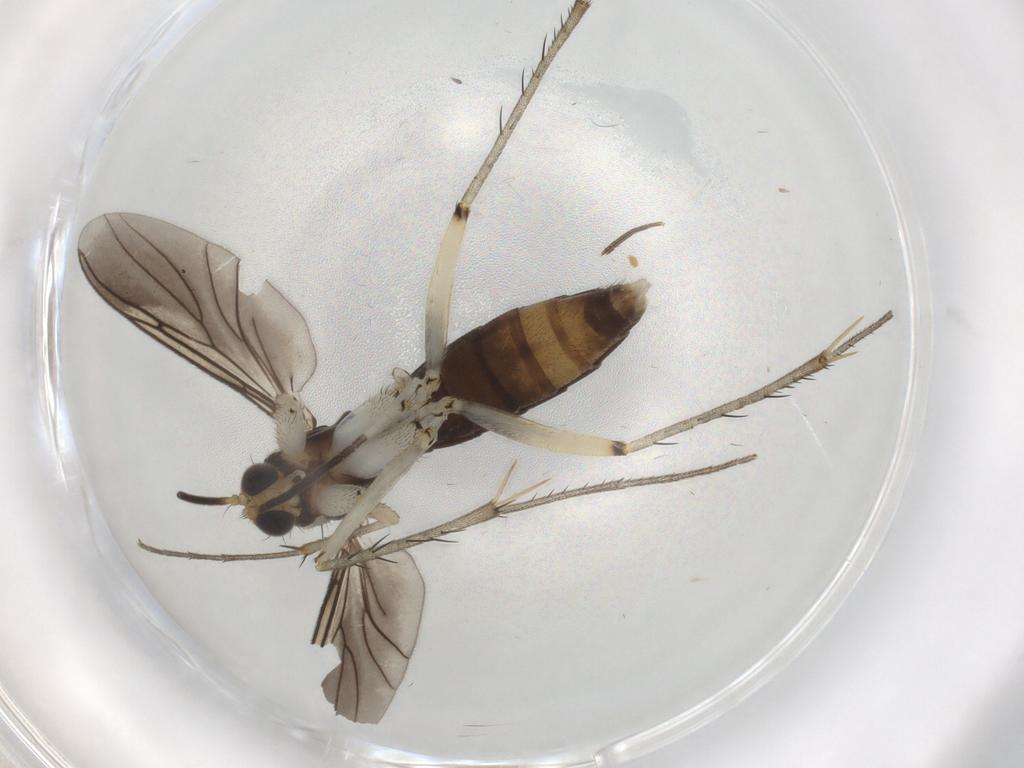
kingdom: Animalia
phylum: Arthropoda
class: Insecta
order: Diptera
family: Mycetophilidae
